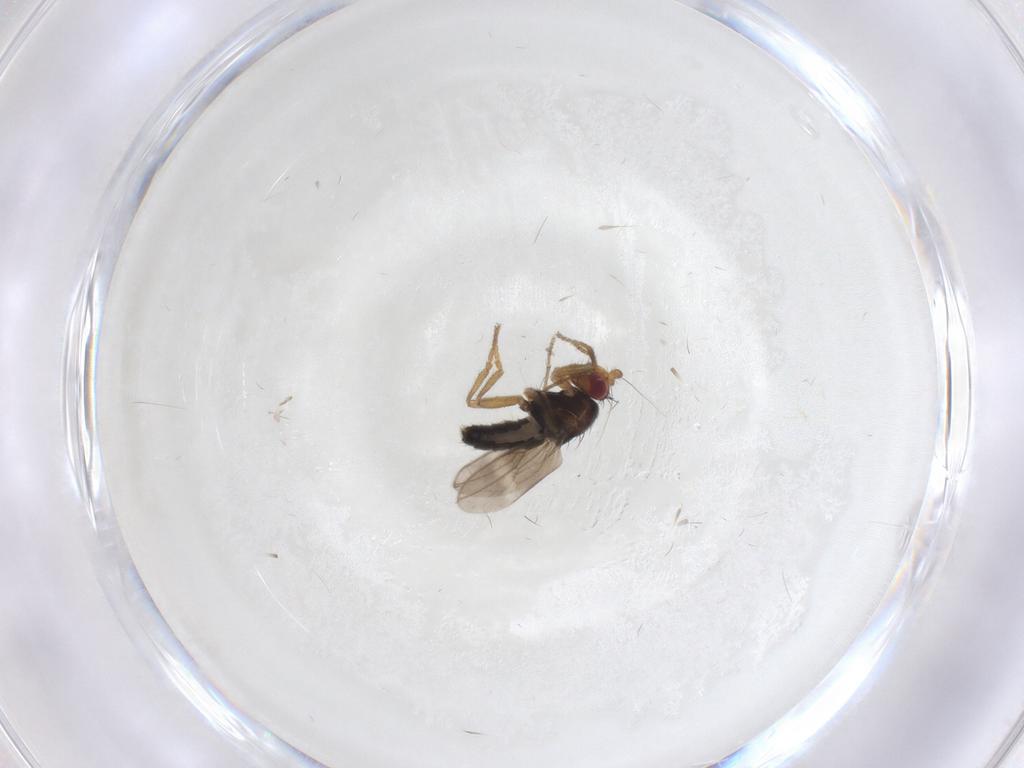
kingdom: Animalia
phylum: Arthropoda
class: Insecta
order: Diptera
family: Sphaeroceridae
